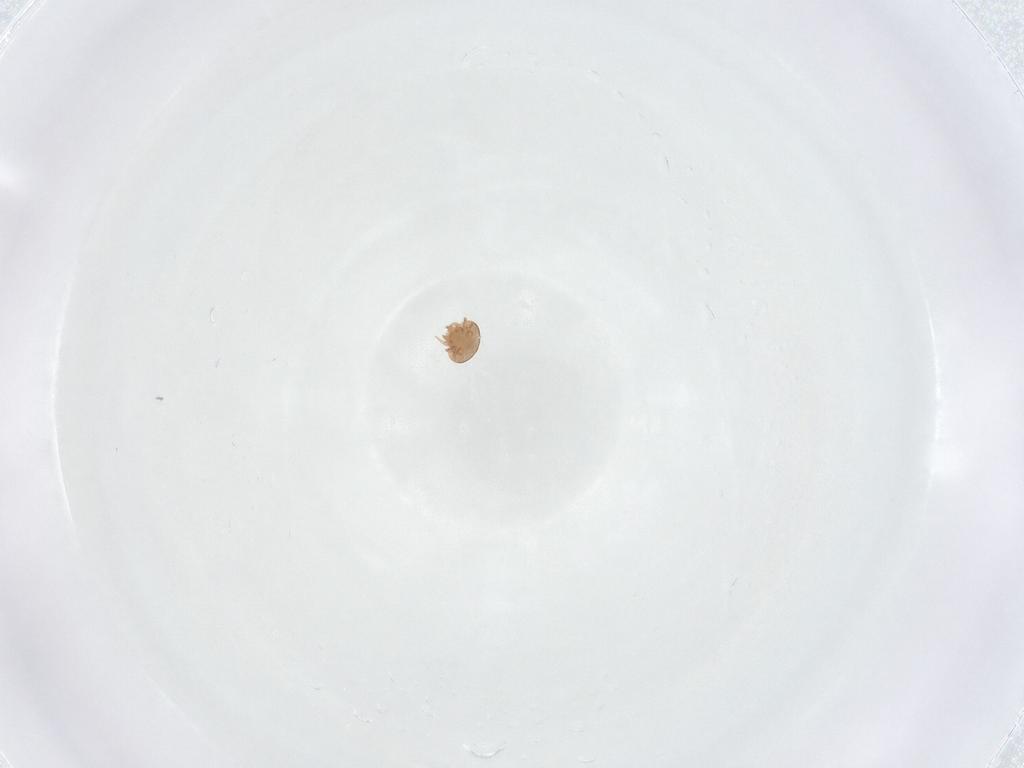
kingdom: Animalia
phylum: Arthropoda
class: Arachnida
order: Mesostigmata
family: Trematuridae
